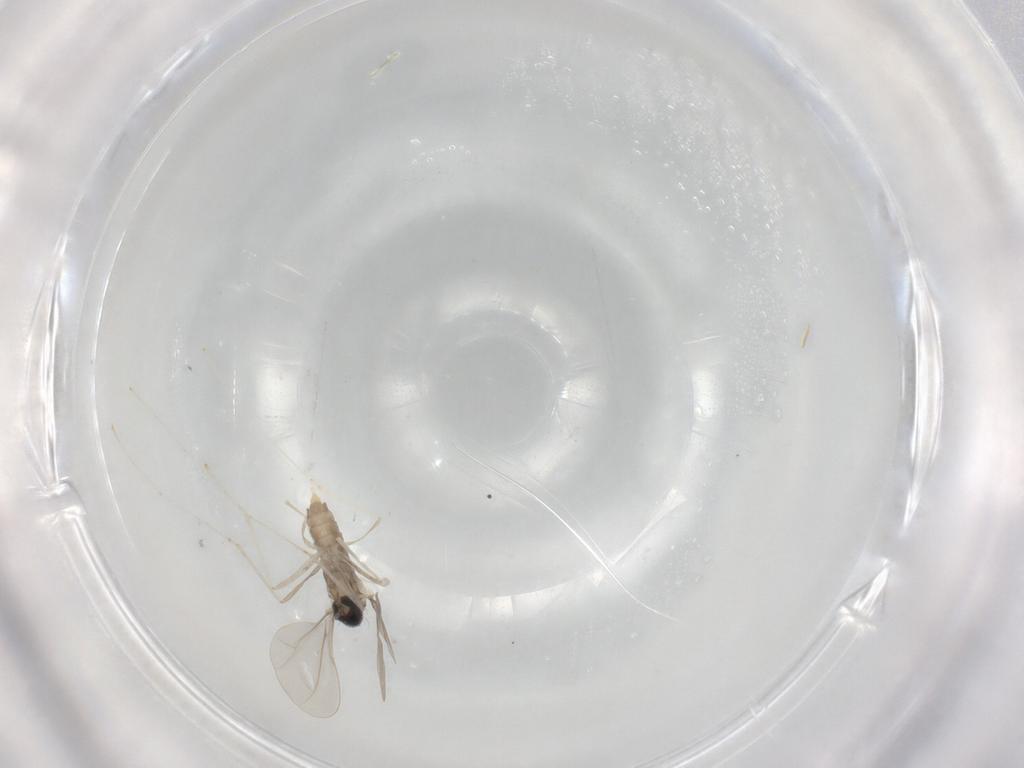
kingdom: Animalia
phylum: Arthropoda
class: Insecta
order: Diptera
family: Cecidomyiidae
